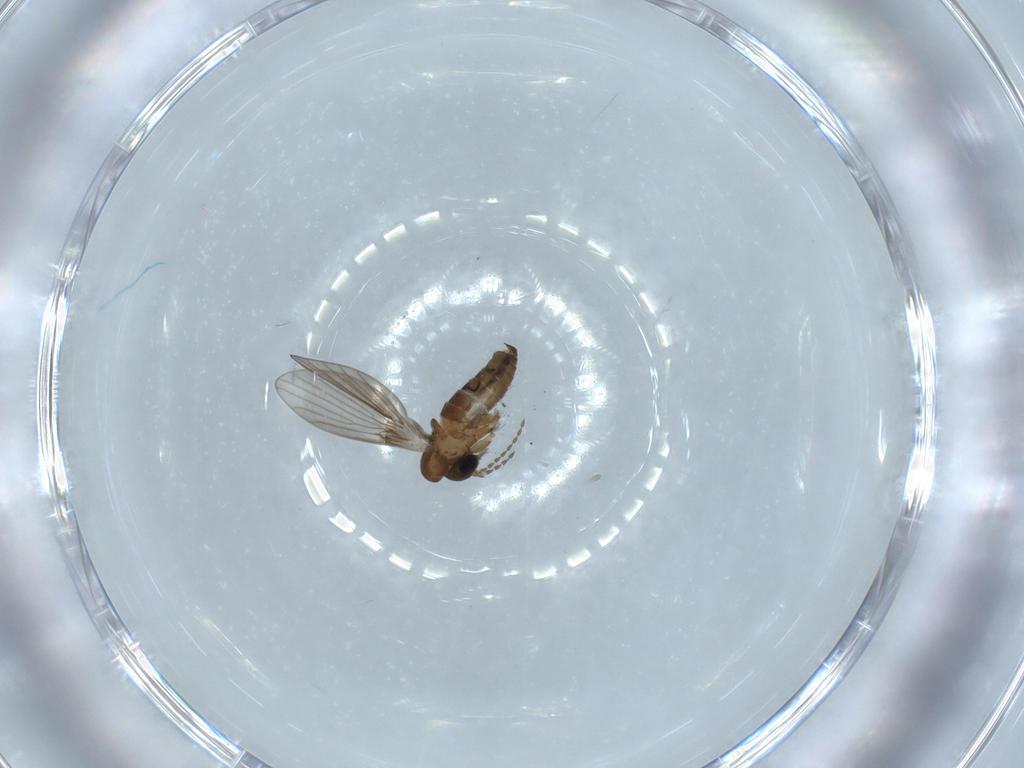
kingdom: Animalia
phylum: Arthropoda
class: Insecta
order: Diptera
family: Psychodidae
